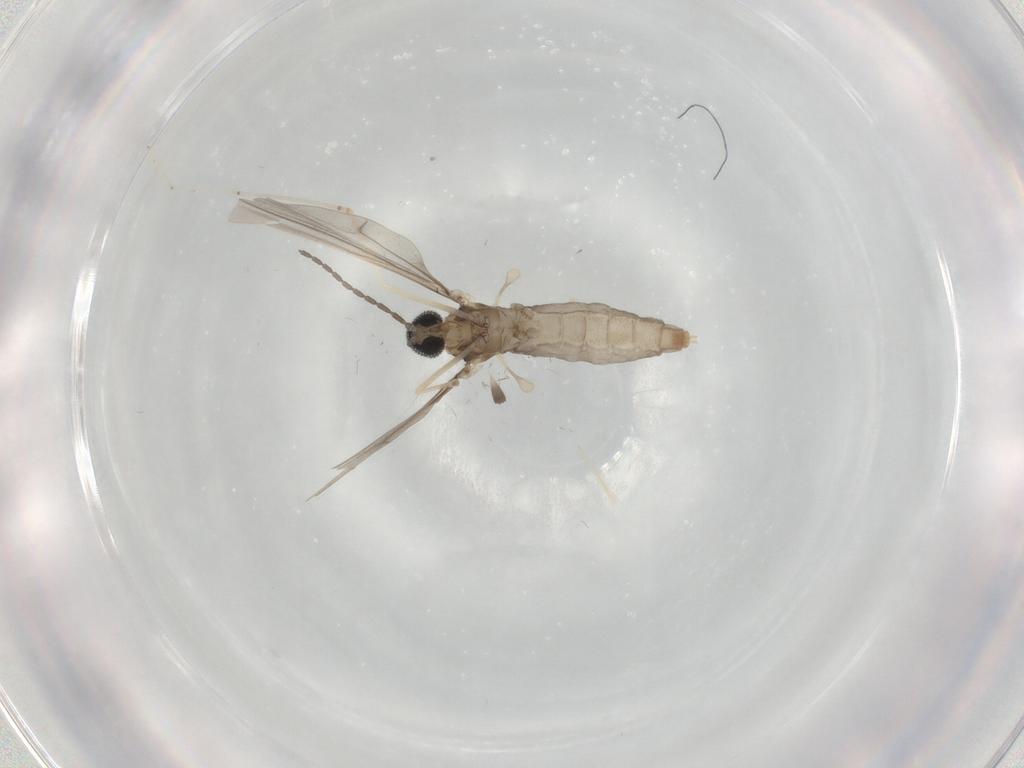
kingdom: Animalia
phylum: Arthropoda
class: Insecta
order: Diptera
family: Cecidomyiidae
